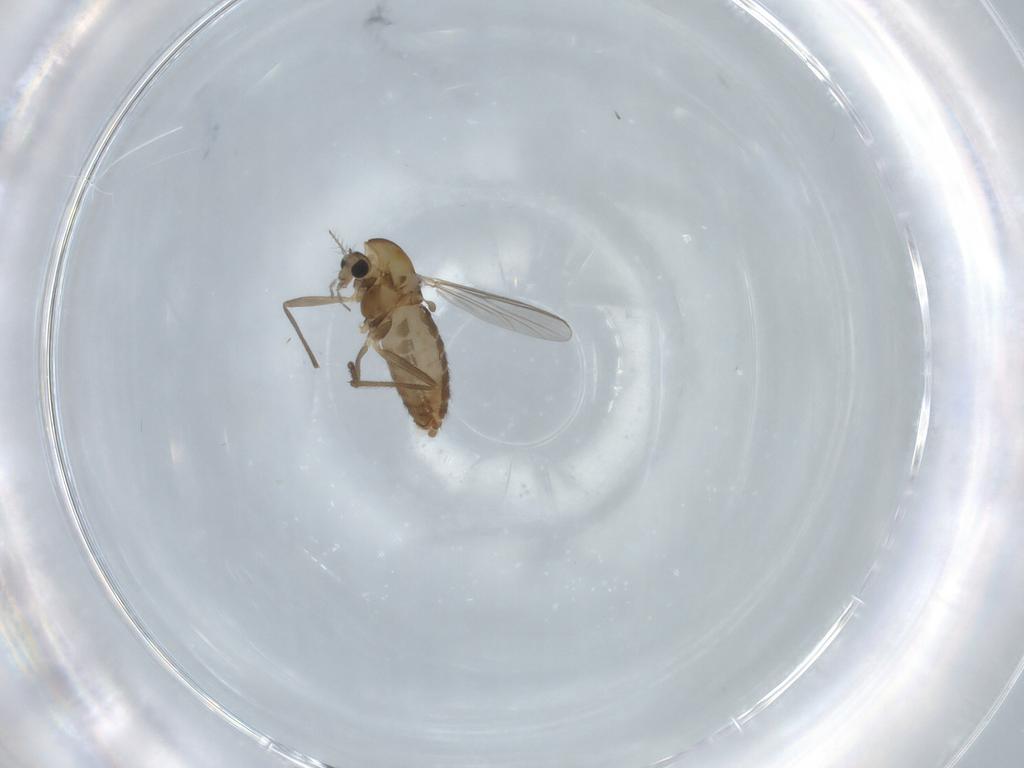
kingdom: Animalia
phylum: Arthropoda
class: Insecta
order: Diptera
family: Chironomidae
